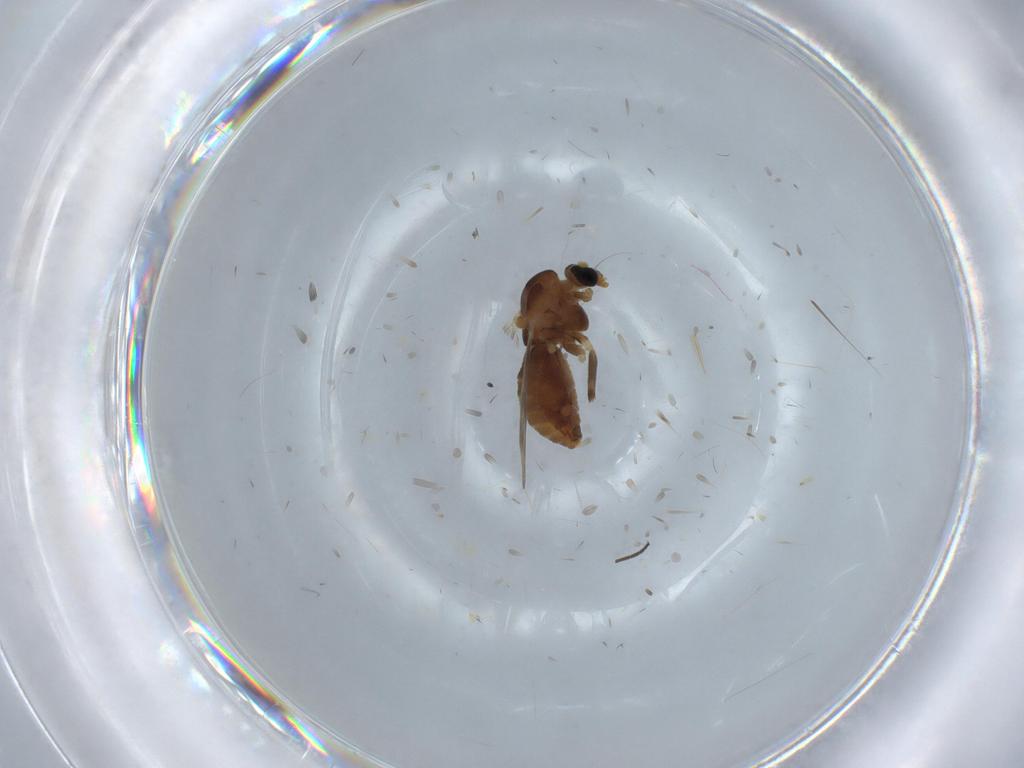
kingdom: Animalia
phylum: Arthropoda
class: Insecta
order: Diptera
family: Chironomidae
